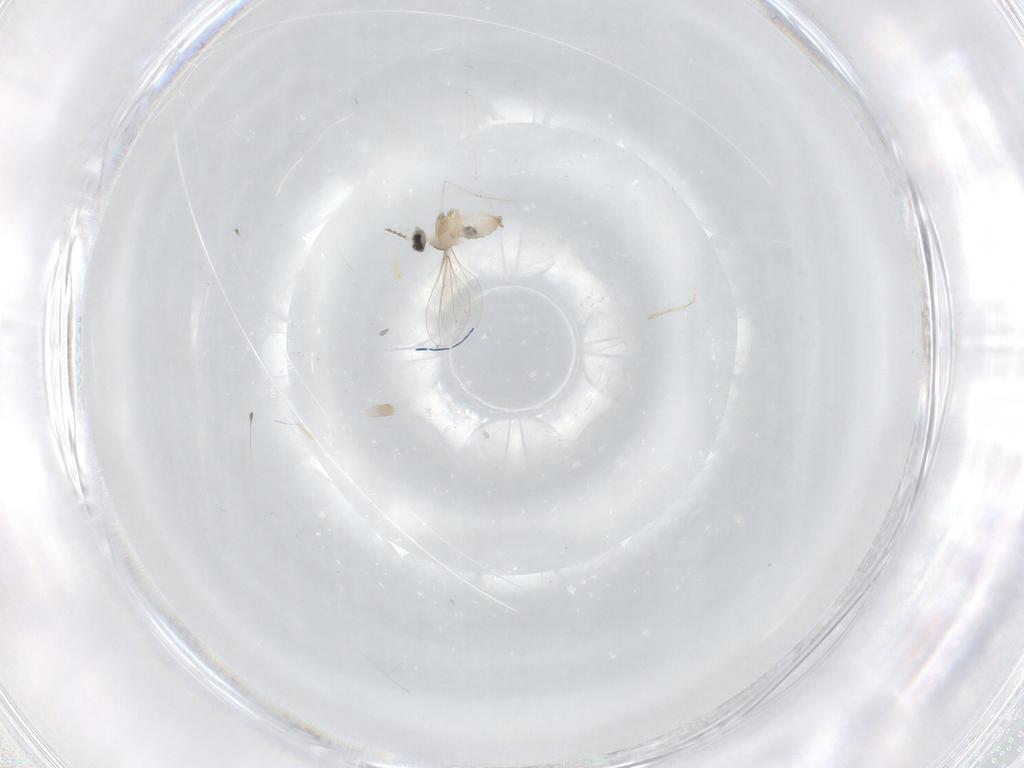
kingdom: Animalia
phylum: Arthropoda
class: Insecta
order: Diptera
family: Cecidomyiidae
